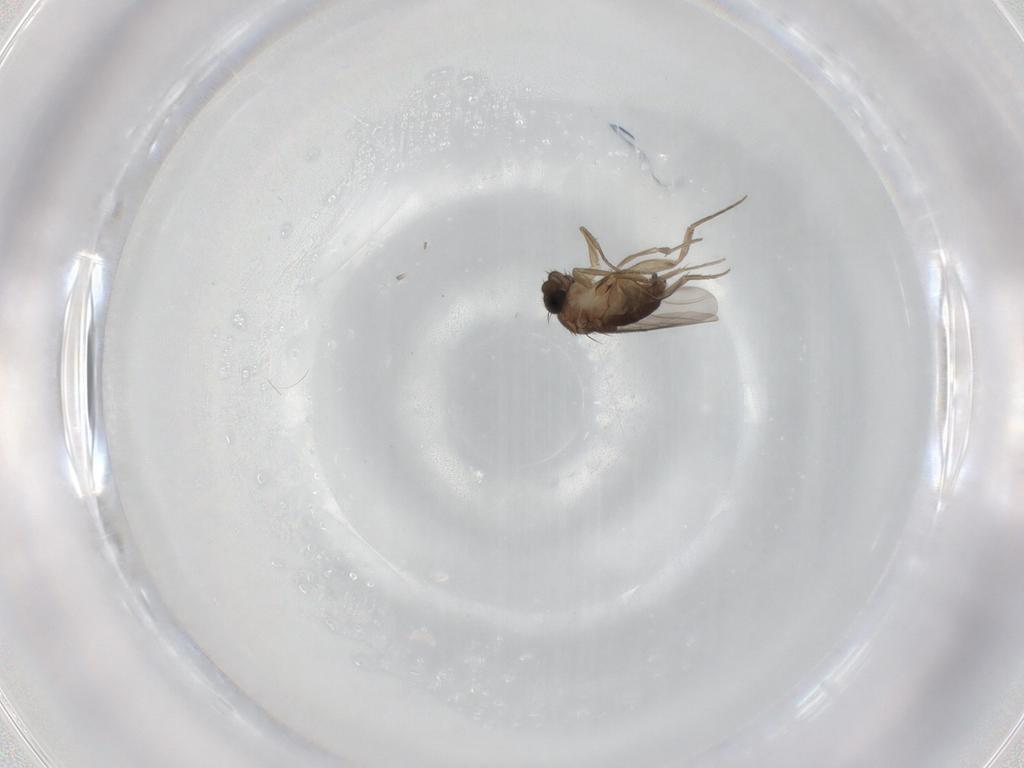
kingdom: Animalia
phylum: Arthropoda
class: Insecta
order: Diptera
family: Phoridae
